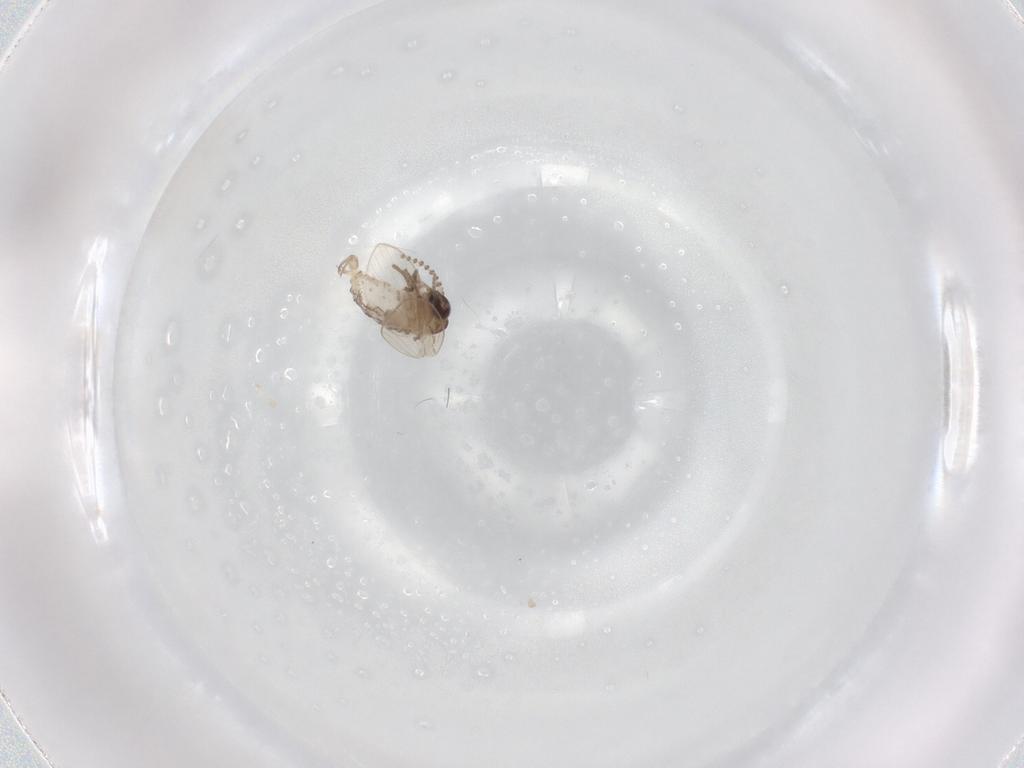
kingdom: Animalia
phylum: Arthropoda
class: Insecta
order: Diptera
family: Psychodidae
